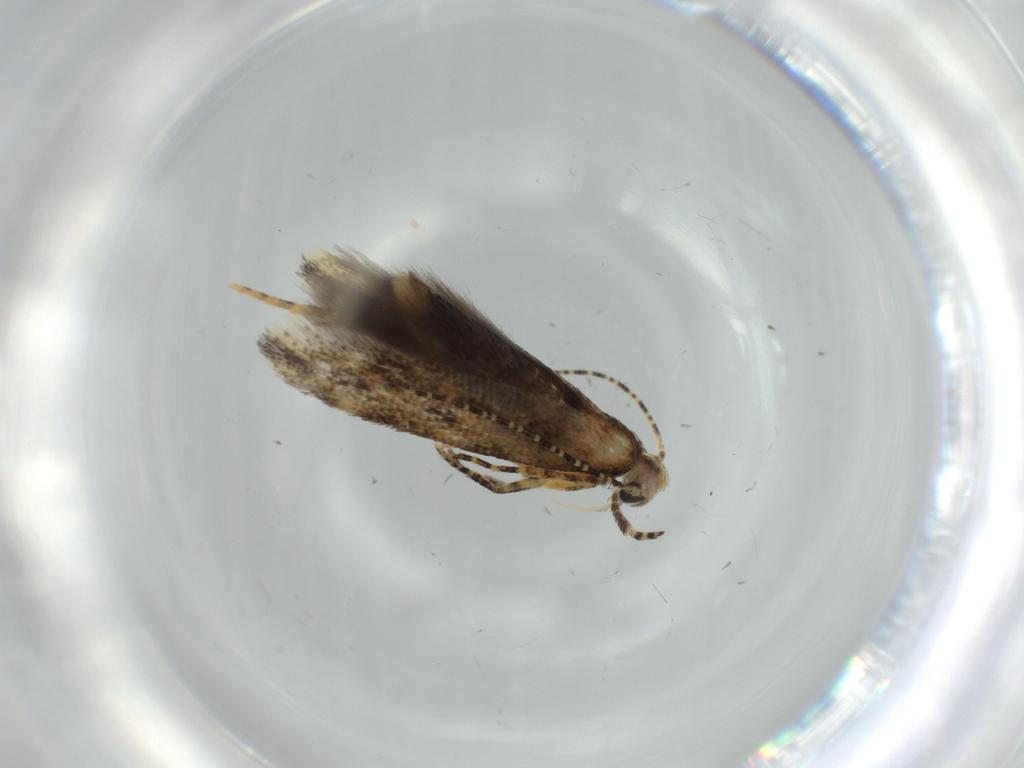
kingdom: Animalia
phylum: Arthropoda
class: Insecta
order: Lepidoptera
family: Gelechiidae
